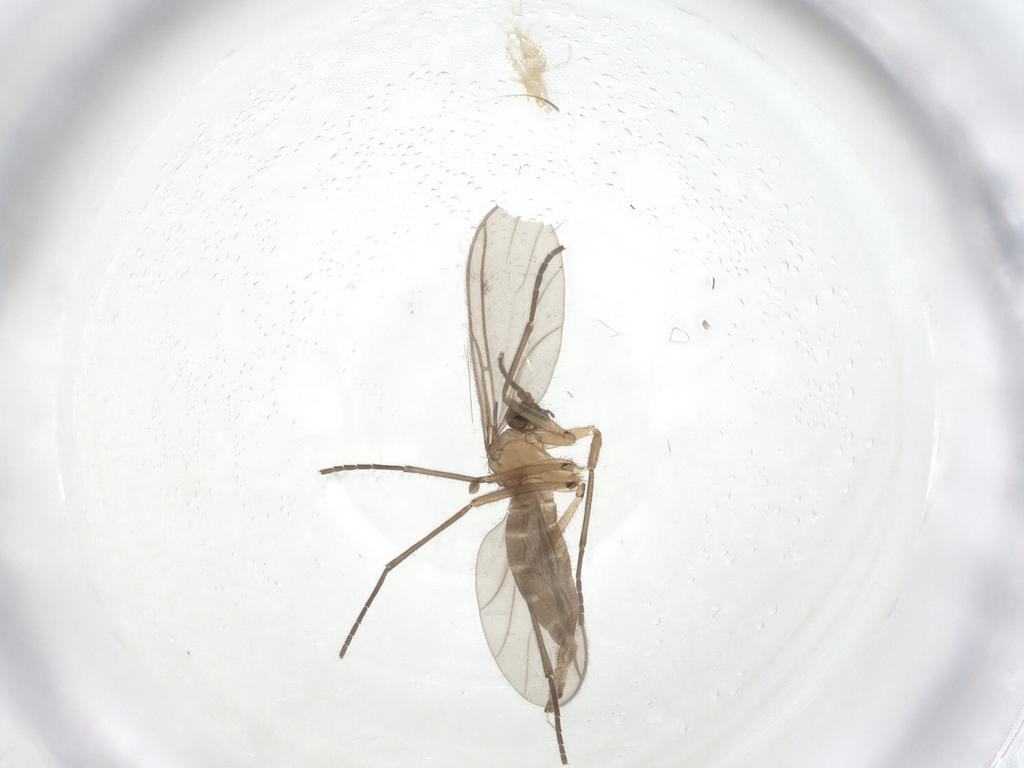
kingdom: Animalia
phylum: Arthropoda
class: Insecta
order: Diptera
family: Sciaridae
